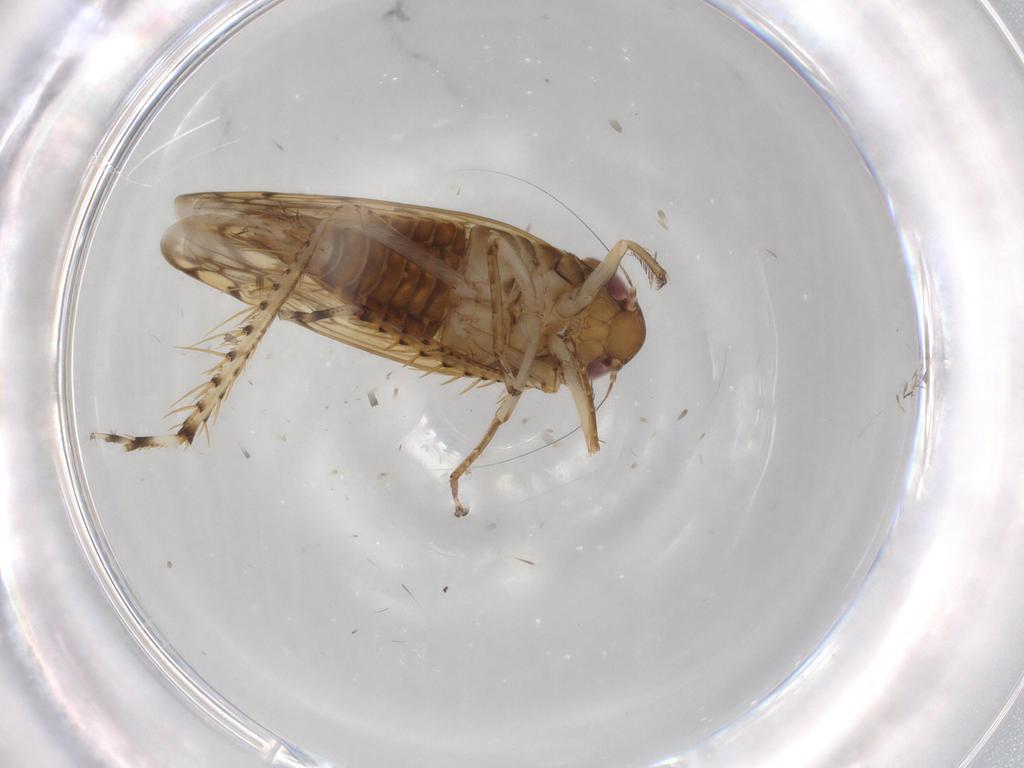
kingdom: Animalia
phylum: Arthropoda
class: Insecta
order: Hemiptera
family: Cicadellidae
